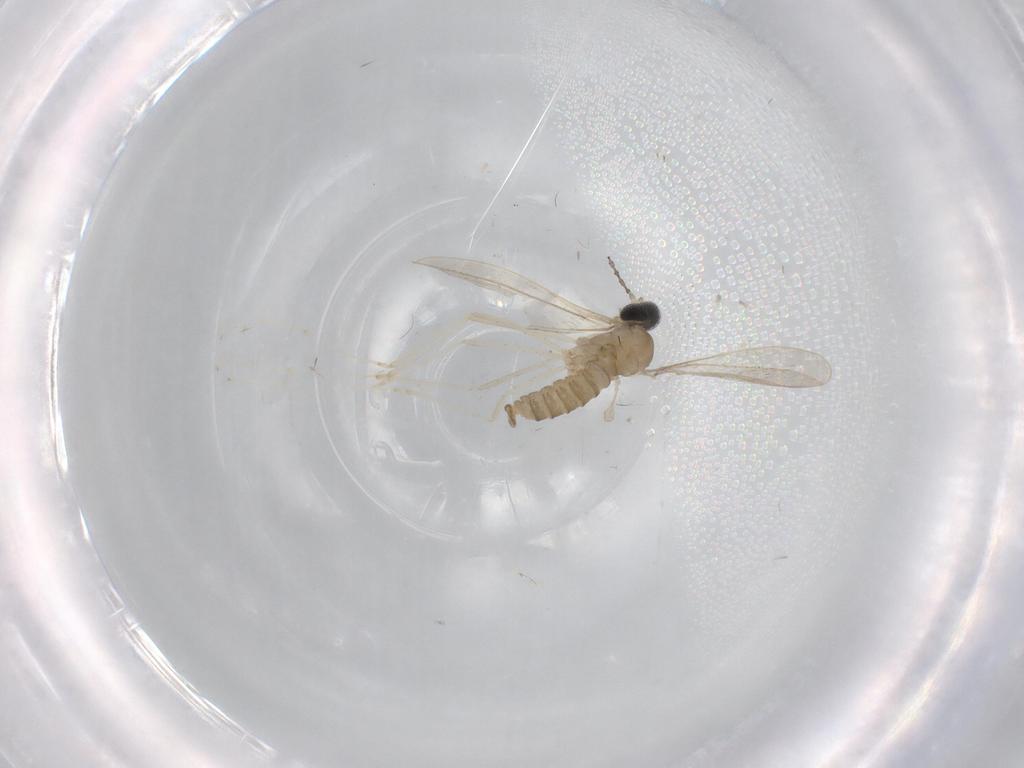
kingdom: Animalia
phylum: Arthropoda
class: Insecta
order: Diptera
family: Cecidomyiidae
